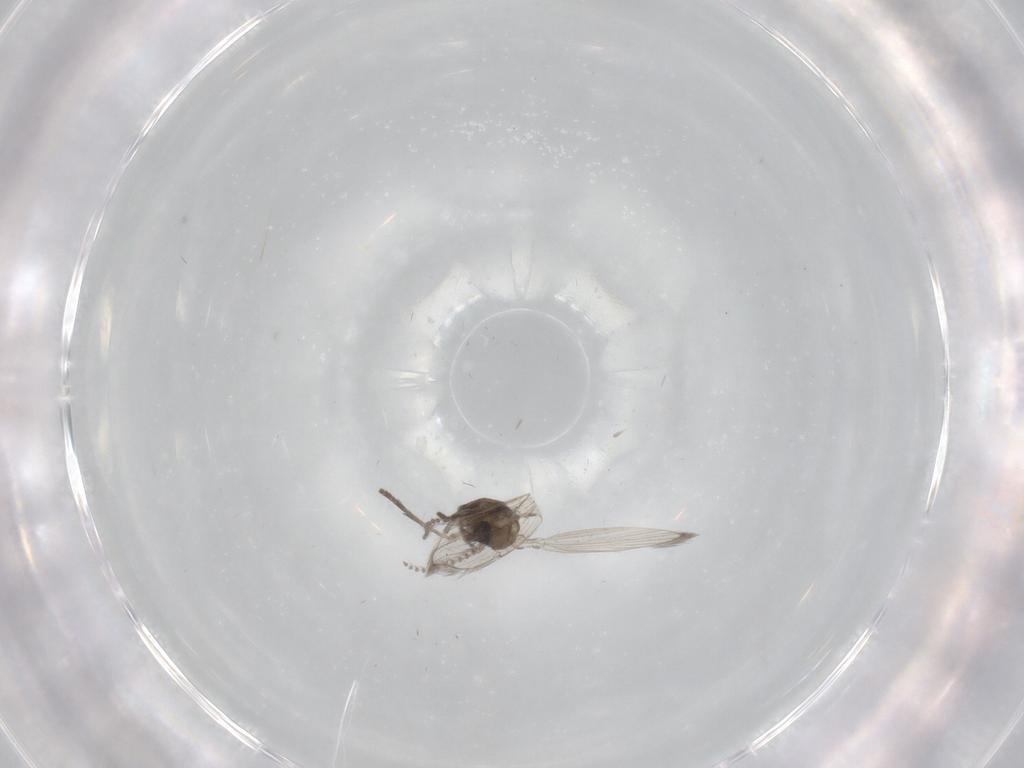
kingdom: Animalia
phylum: Arthropoda
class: Insecta
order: Diptera
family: Psychodidae
